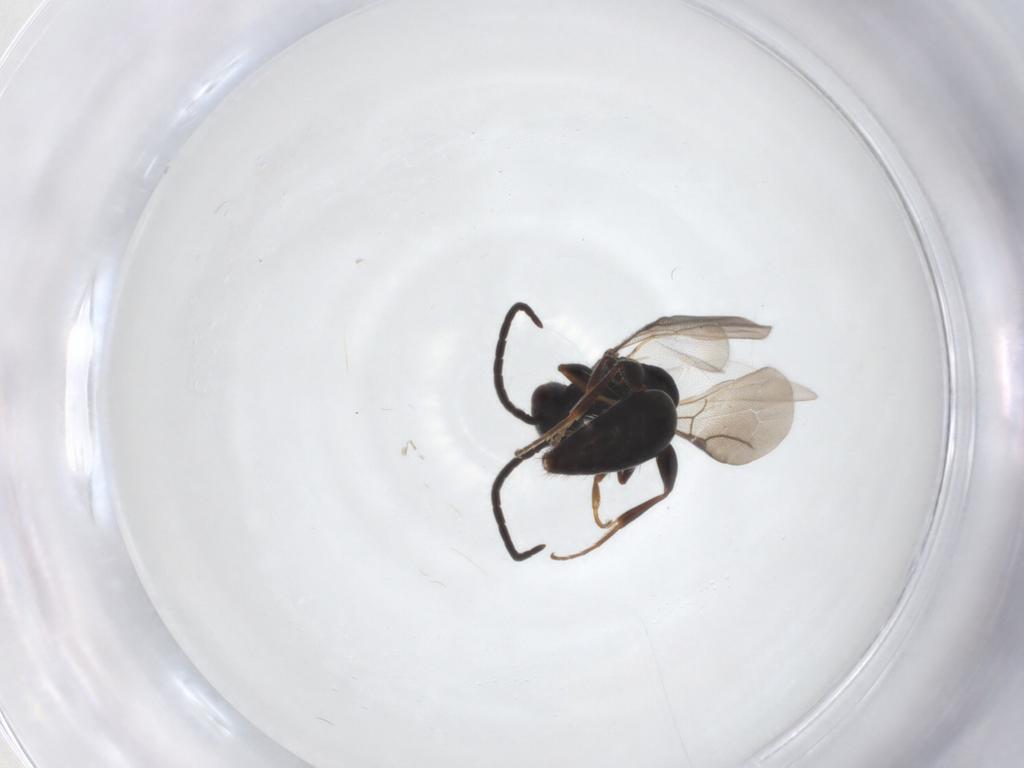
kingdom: Animalia
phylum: Arthropoda
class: Insecta
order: Hymenoptera
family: Bethylidae
